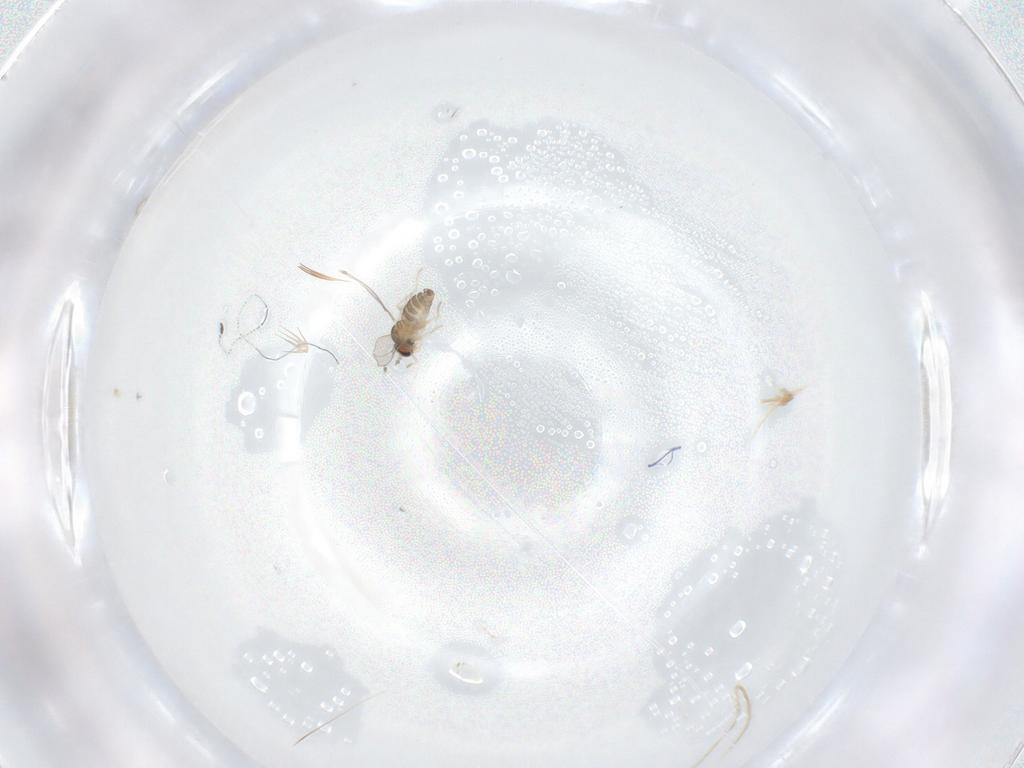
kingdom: Animalia
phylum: Arthropoda
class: Insecta
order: Diptera
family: Cecidomyiidae
